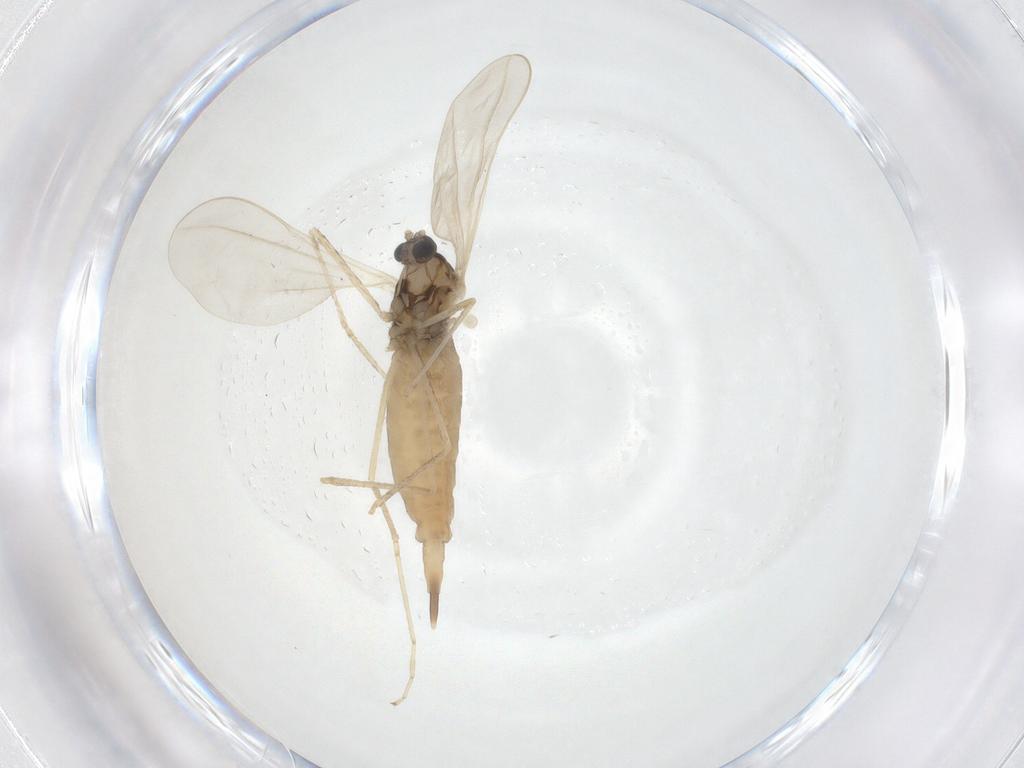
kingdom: Animalia
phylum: Arthropoda
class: Insecta
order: Diptera
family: Cecidomyiidae
